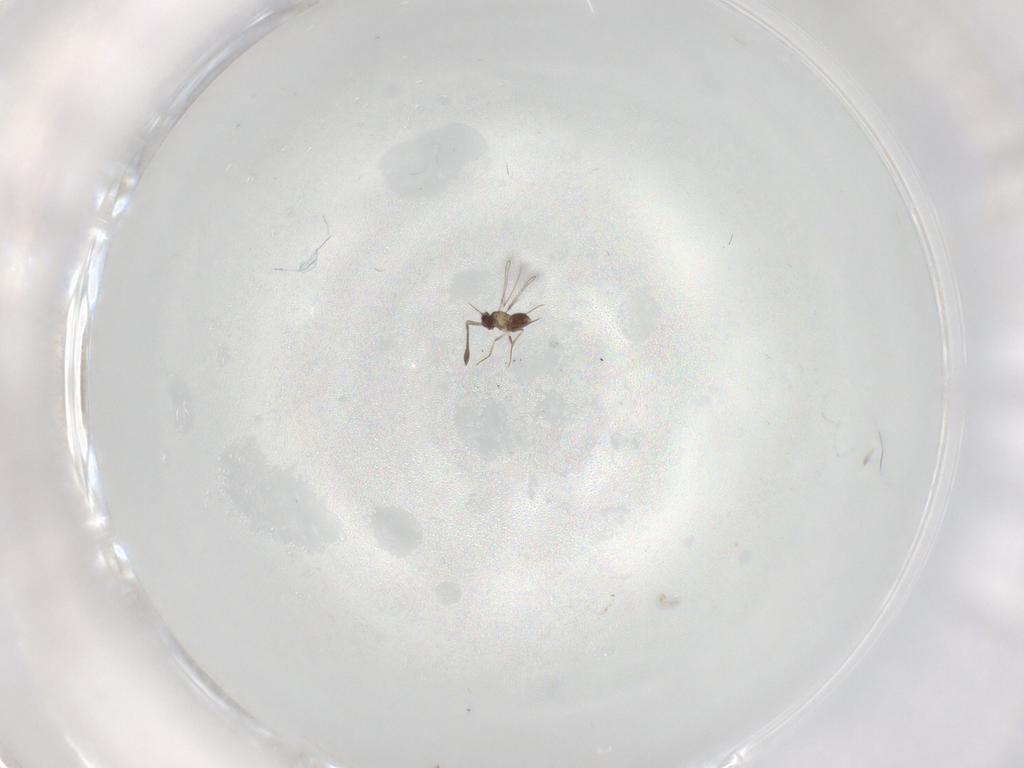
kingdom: Animalia
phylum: Arthropoda
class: Insecta
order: Hymenoptera
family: Mymaridae
